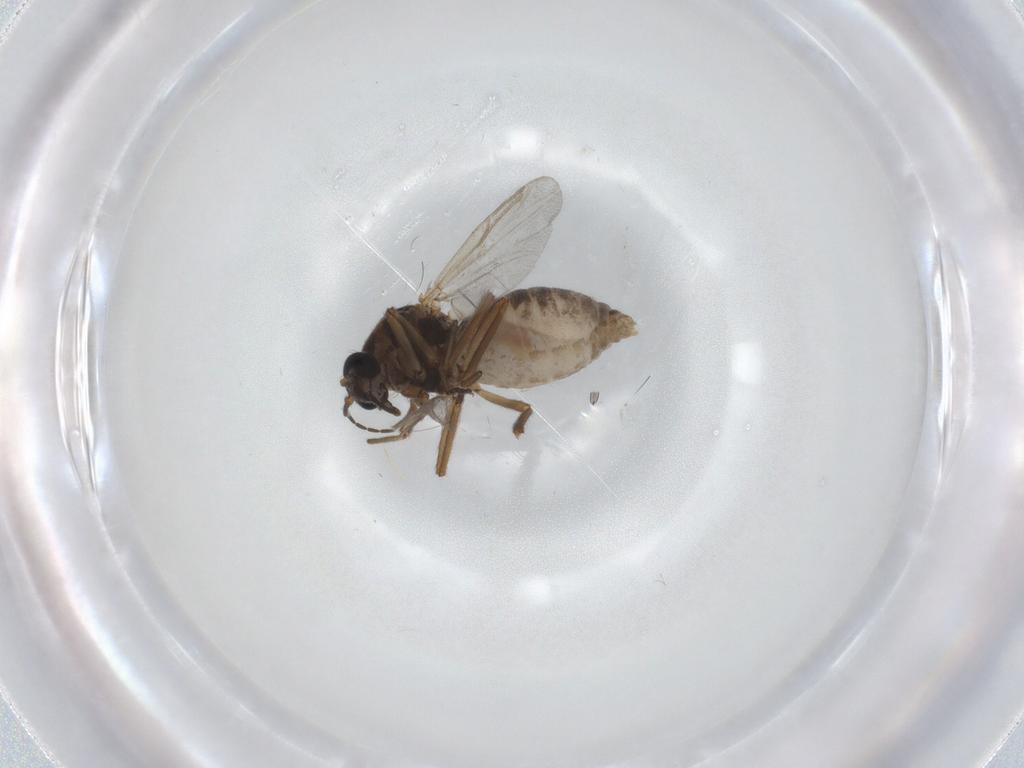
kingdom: Animalia
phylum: Arthropoda
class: Insecta
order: Diptera
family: Ceratopogonidae
